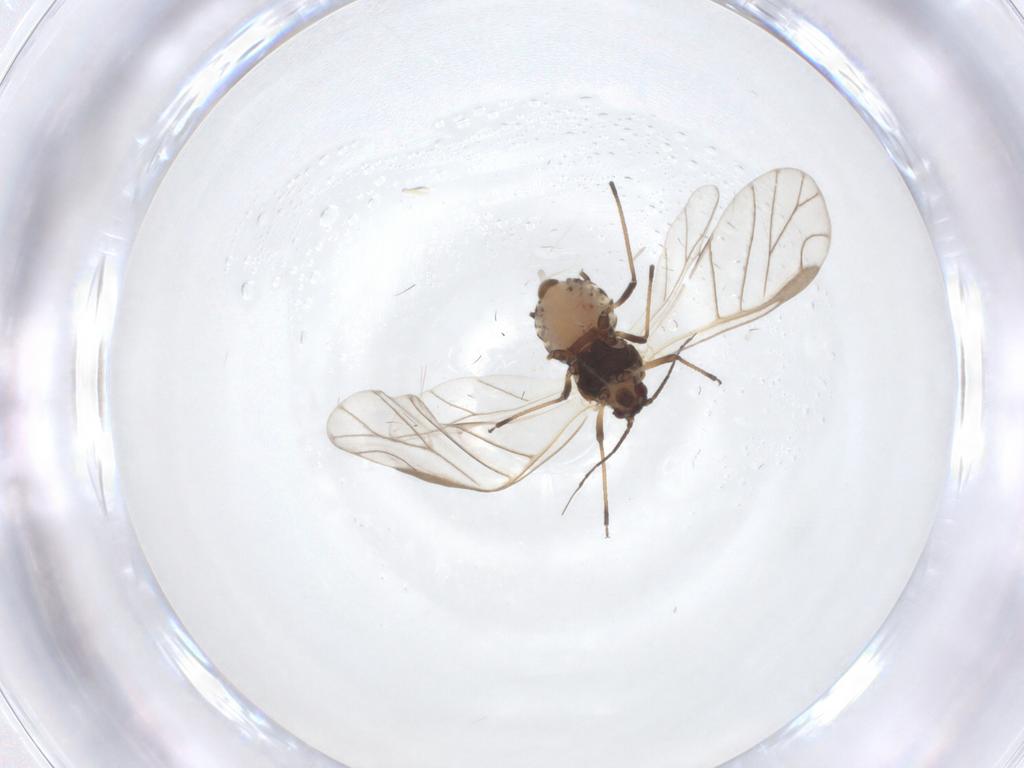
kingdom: Animalia
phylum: Arthropoda
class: Insecta
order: Hemiptera
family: Aphididae
